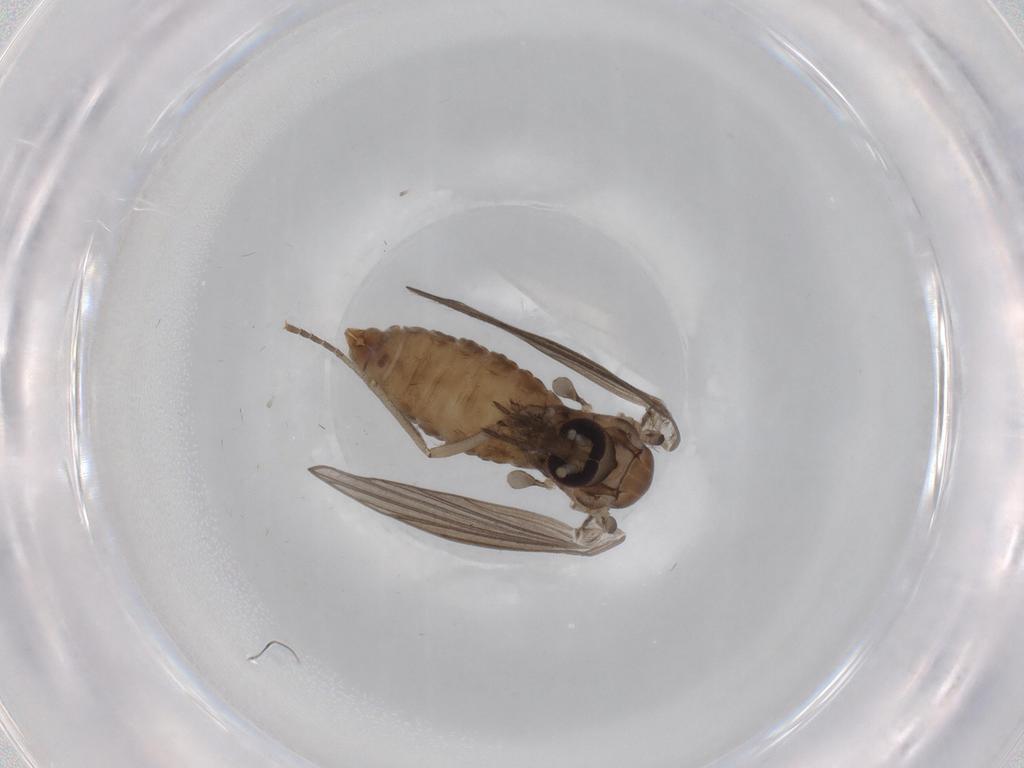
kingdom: Animalia
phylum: Arthropoda
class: Insecta
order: Diptera
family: Psychodidae
